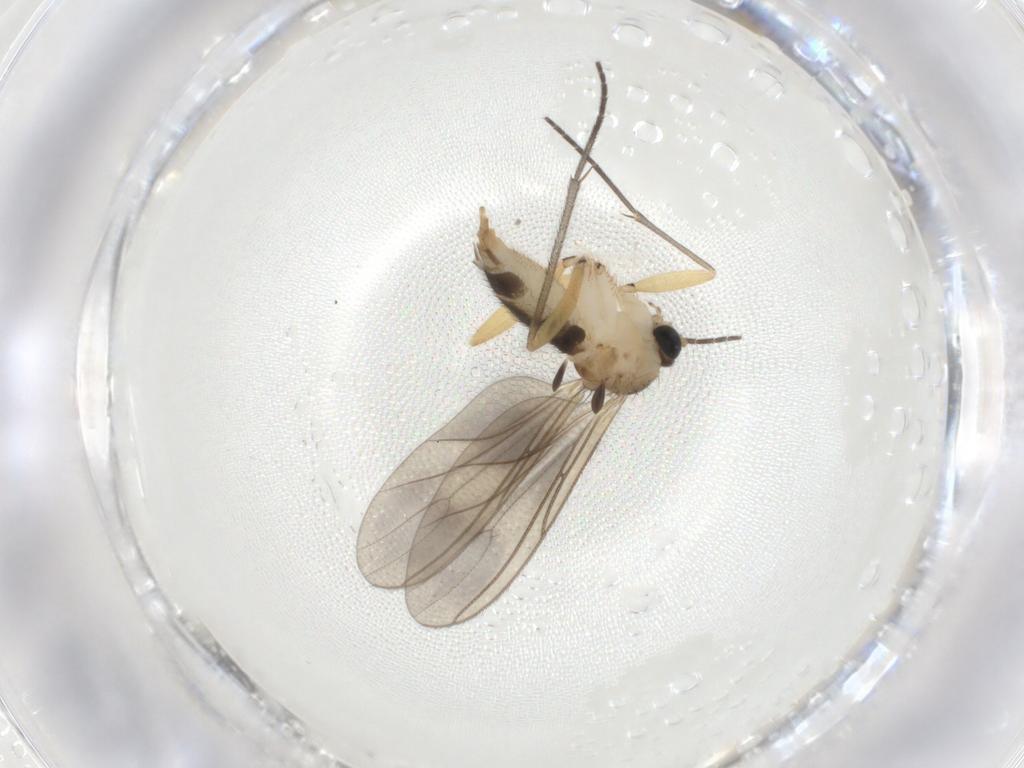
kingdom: Animalia
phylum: Arthropoda
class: Insecta
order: Diptera
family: Sciaridae
